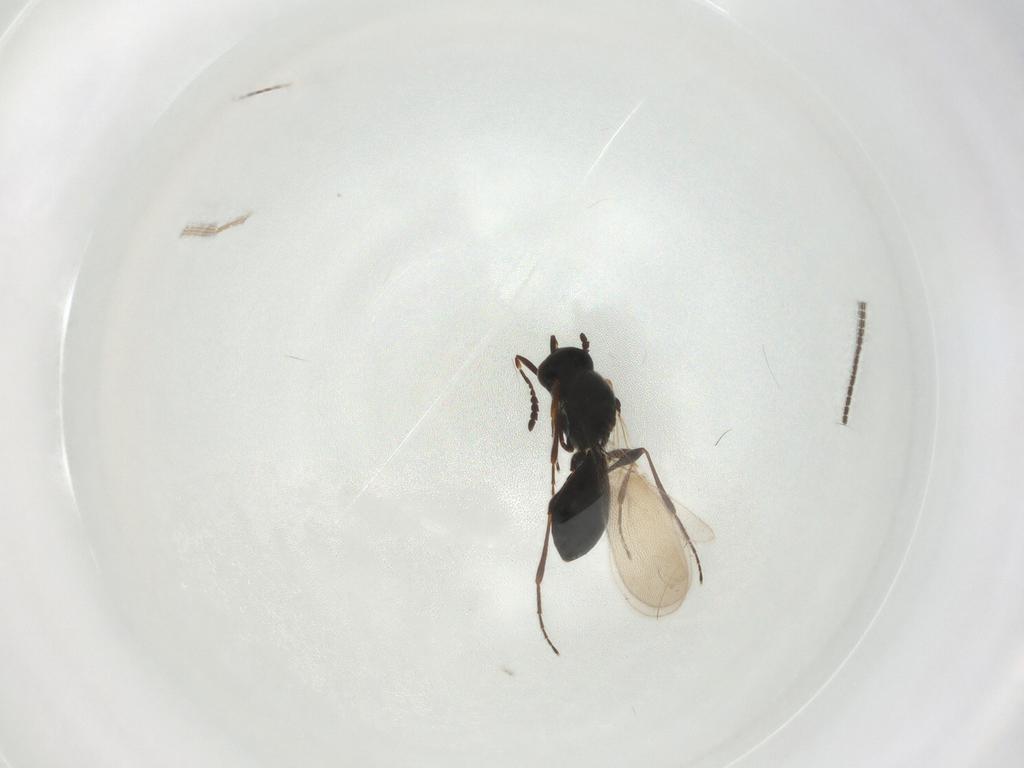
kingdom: Animalia
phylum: Arthropoda
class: Insecta
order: Hymenoptera
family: Platygastridae
